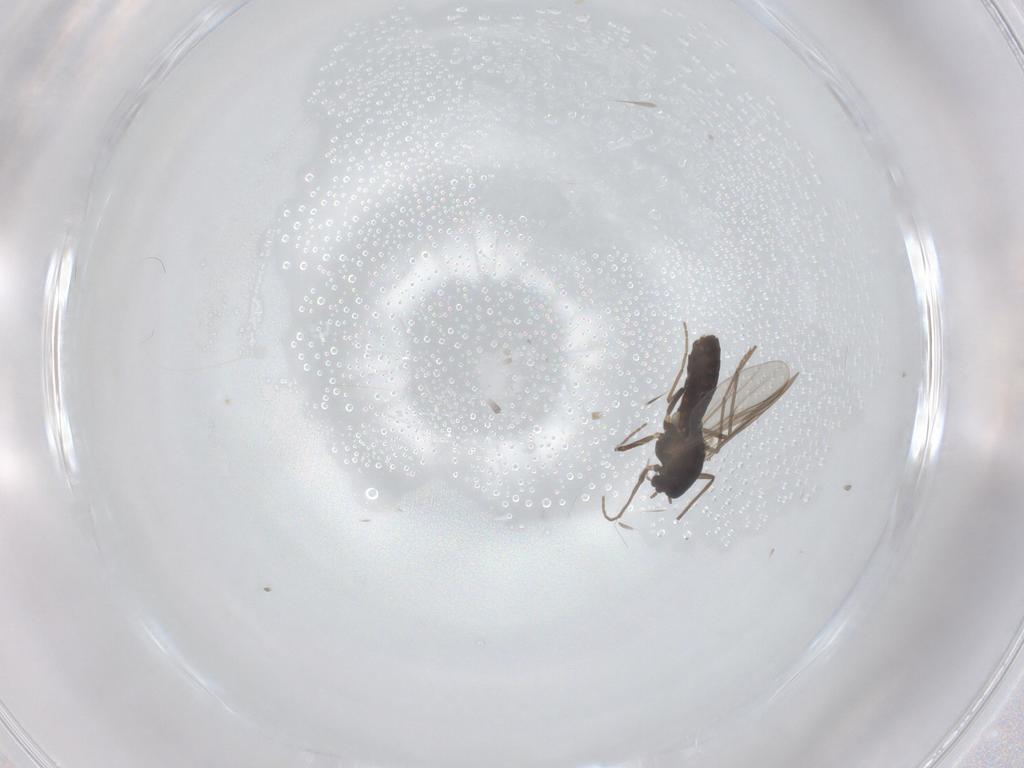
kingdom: Animalia
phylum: Arthropoda
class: Insecta
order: Diptera
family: Chironomidae
